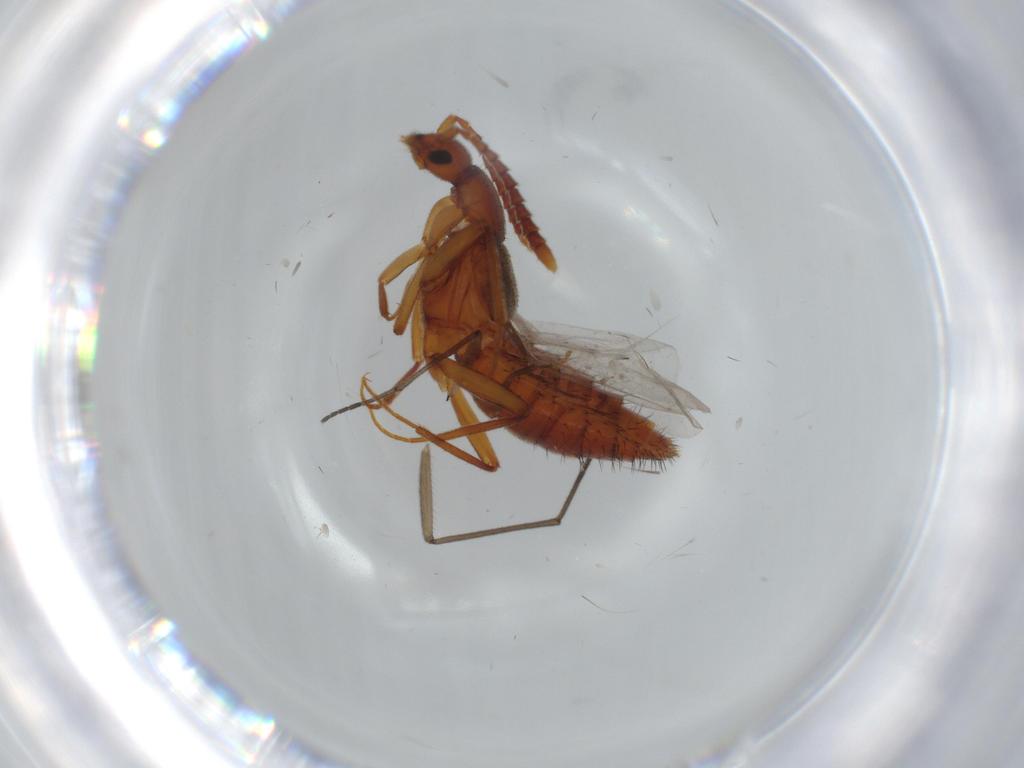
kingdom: Animalia
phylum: Arthropoda
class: Insecta
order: Coleoptera
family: Staphylinidae
